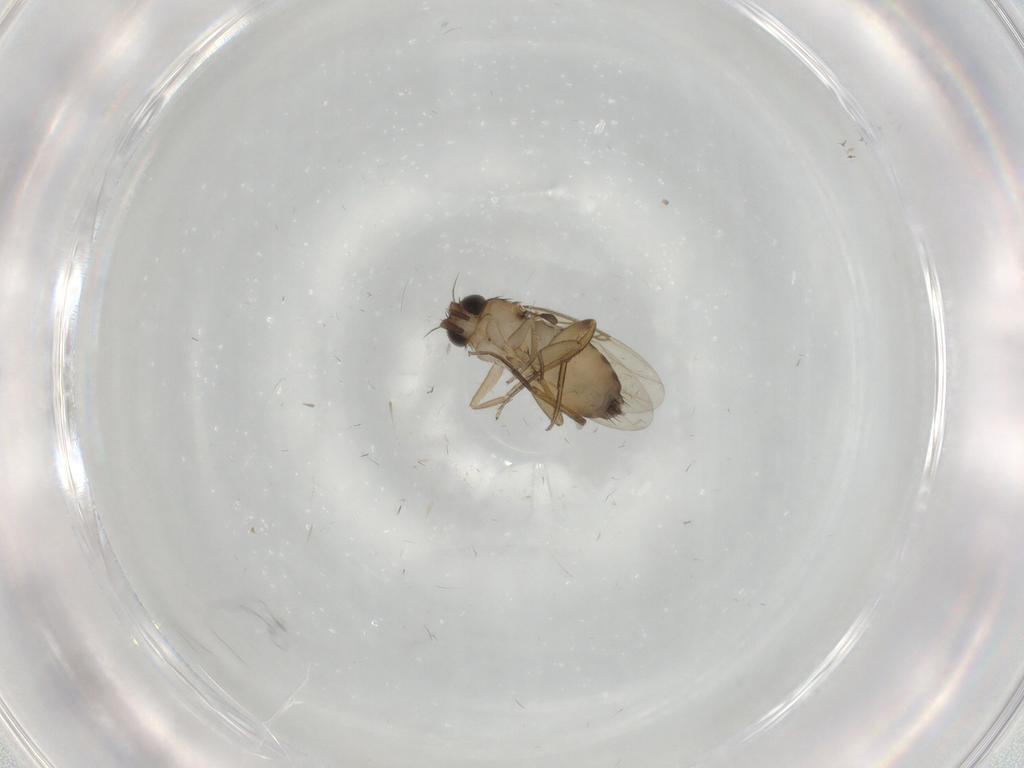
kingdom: Animalia
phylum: Arthropoda
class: Insecta
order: Diptera
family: Phoridae
